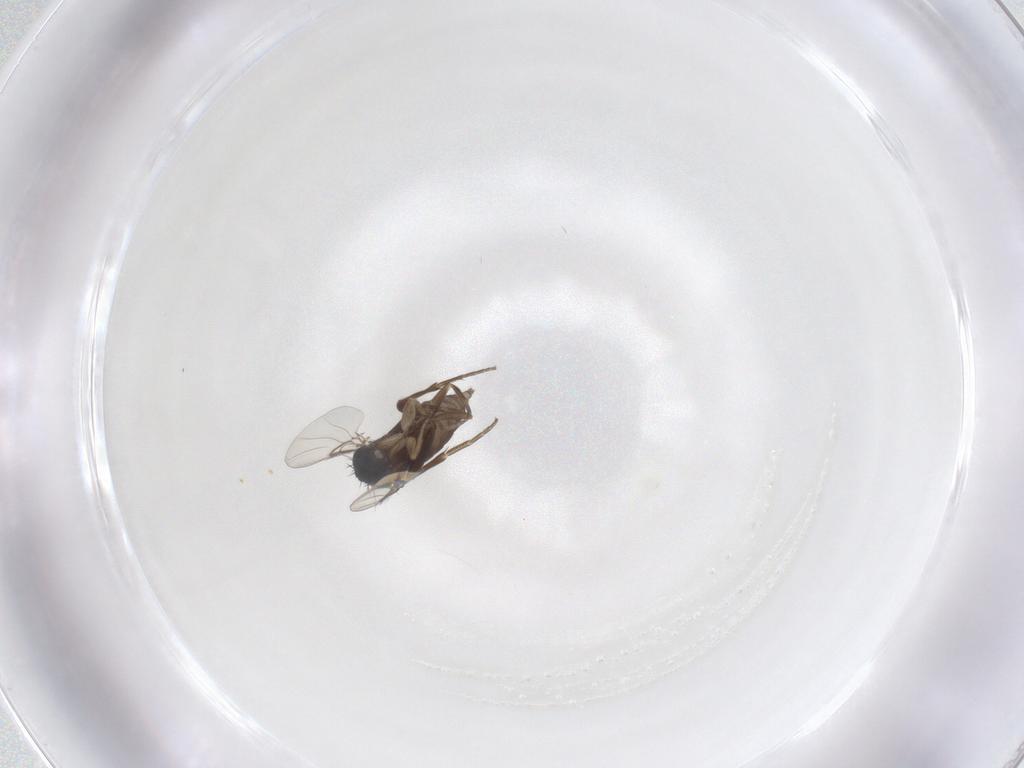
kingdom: Animalia
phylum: Arthropoda
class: Insecta
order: Diptera
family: Phoridae
